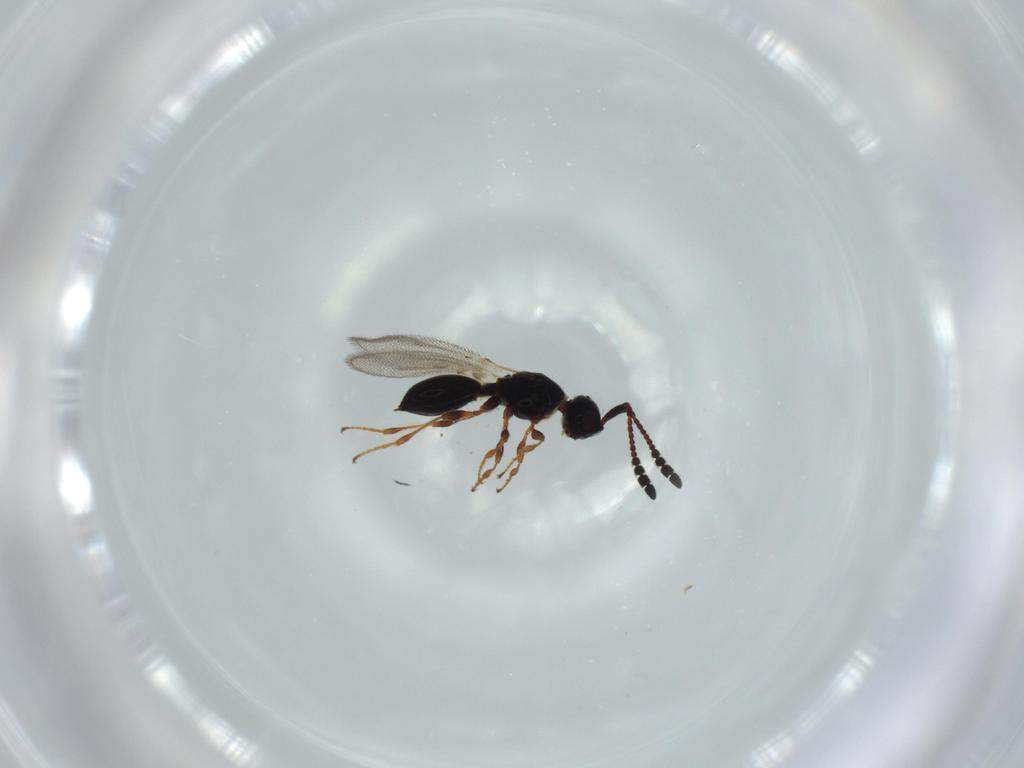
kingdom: Animalia
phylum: Arthropoda
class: Insecta
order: Hymenoptera
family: Diapriidae
